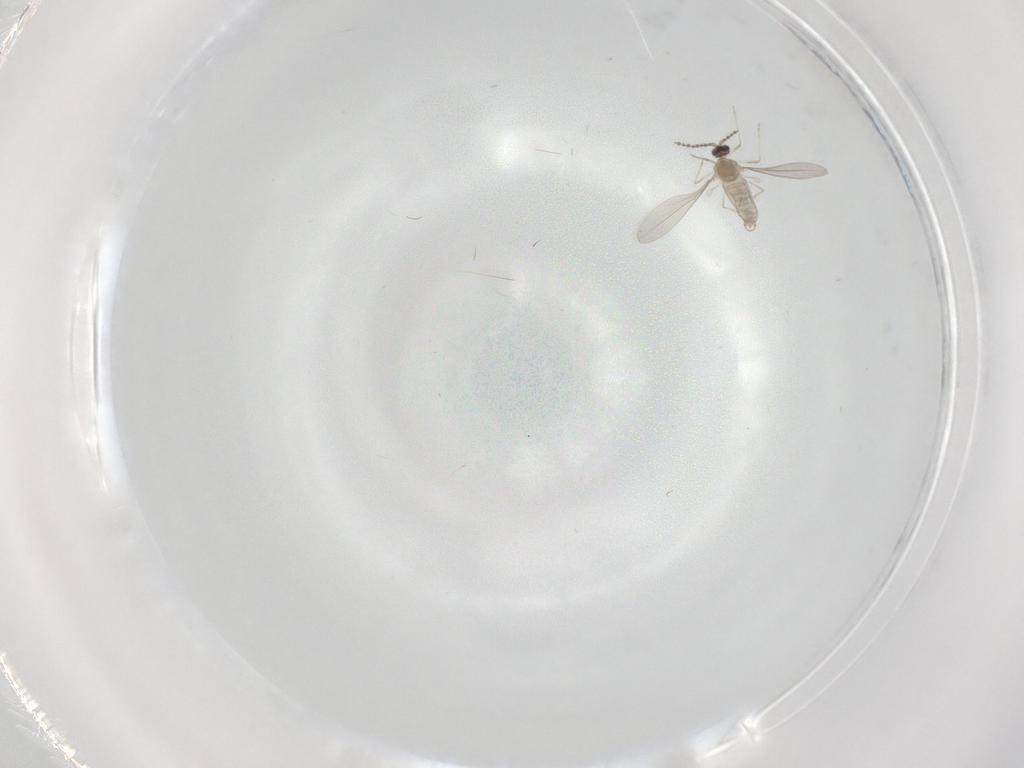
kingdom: Animalia
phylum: Arthropoda
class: Insecta
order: Diptera
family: Cecidomyiidae
